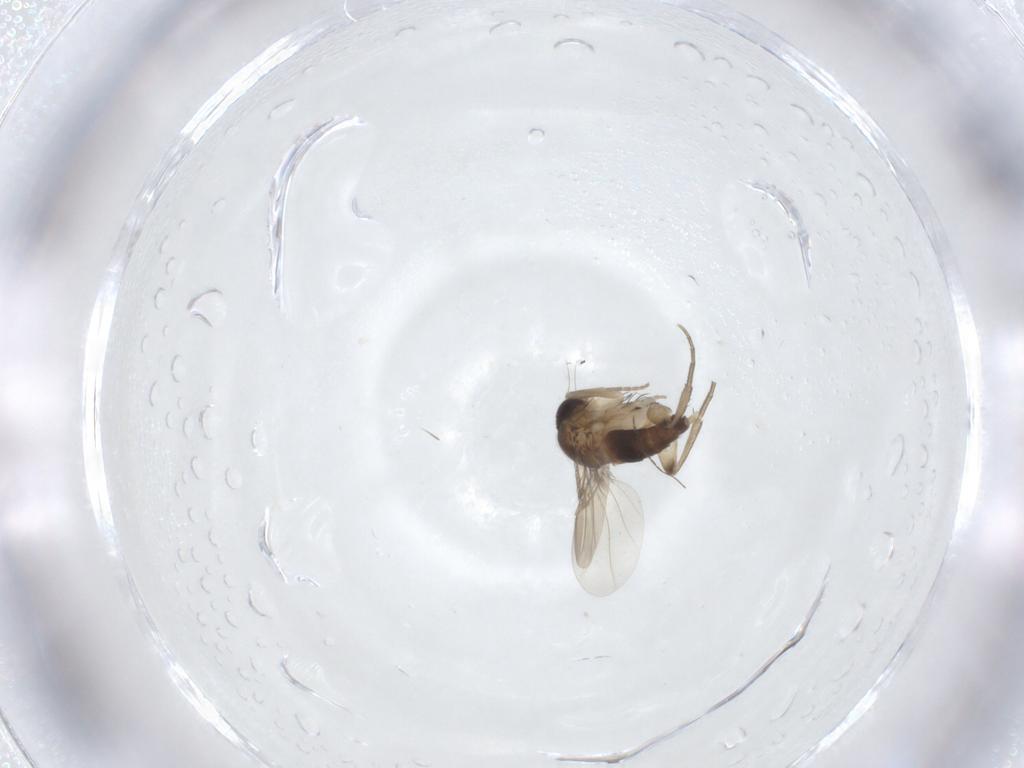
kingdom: Animalia
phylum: Arthropoda
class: Insecta
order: Diptera
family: Phoridae
